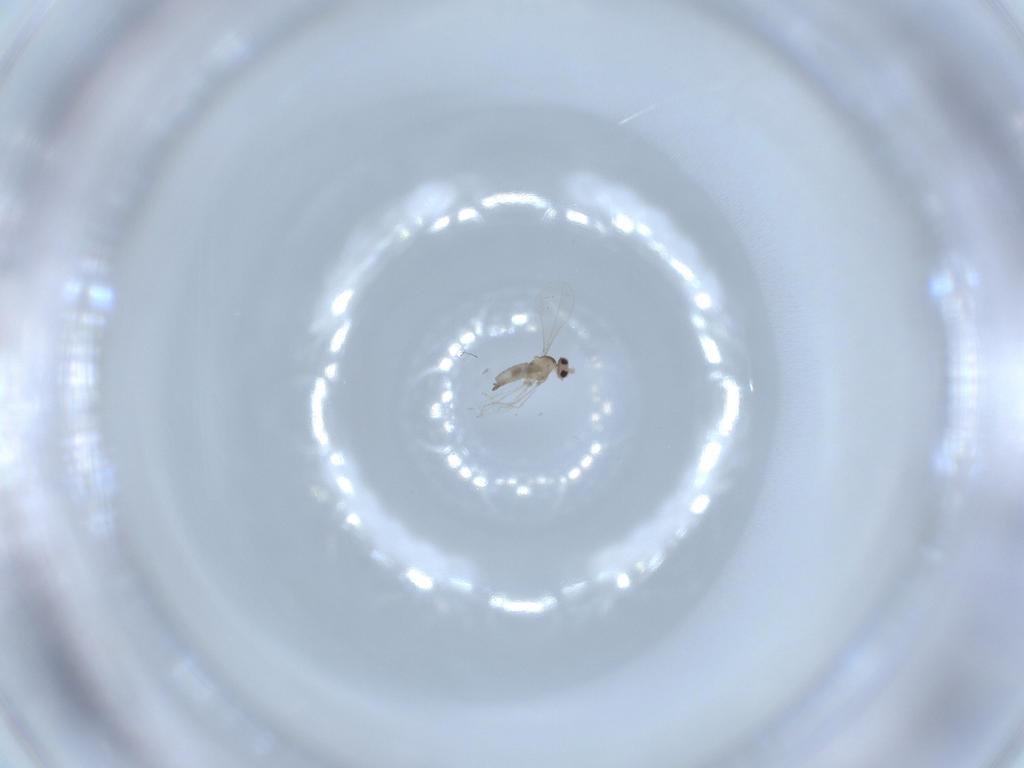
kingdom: Animalia
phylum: Arthropoda
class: Insecta
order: Diptera
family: Cecidomyiidae
